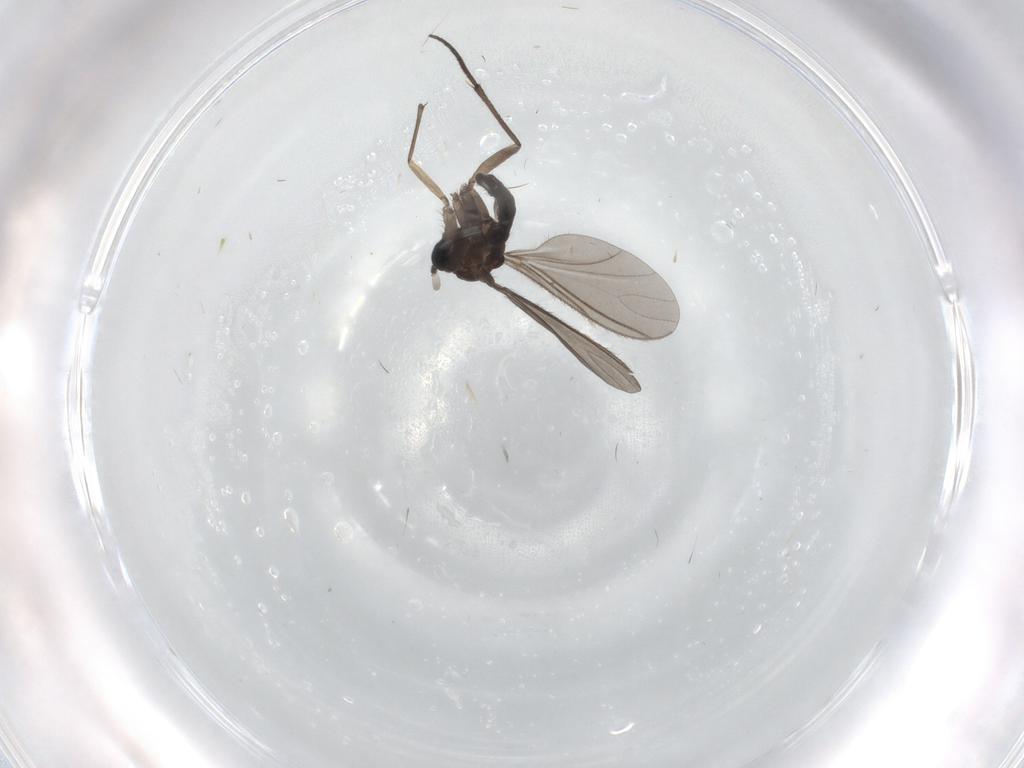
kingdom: Animalia
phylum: Arthropoda
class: Insecta
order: Diptera
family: Sciaridae
